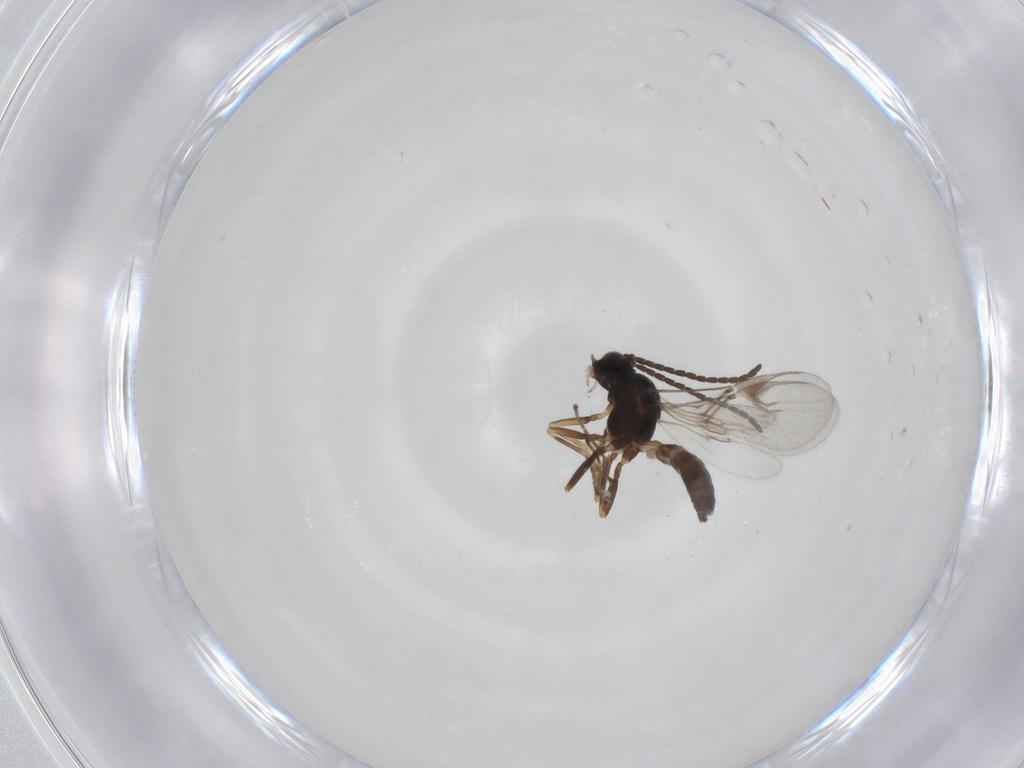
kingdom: Animalia
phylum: Arthropoda
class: Insecta
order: Hymenoptera
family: Braconidae
